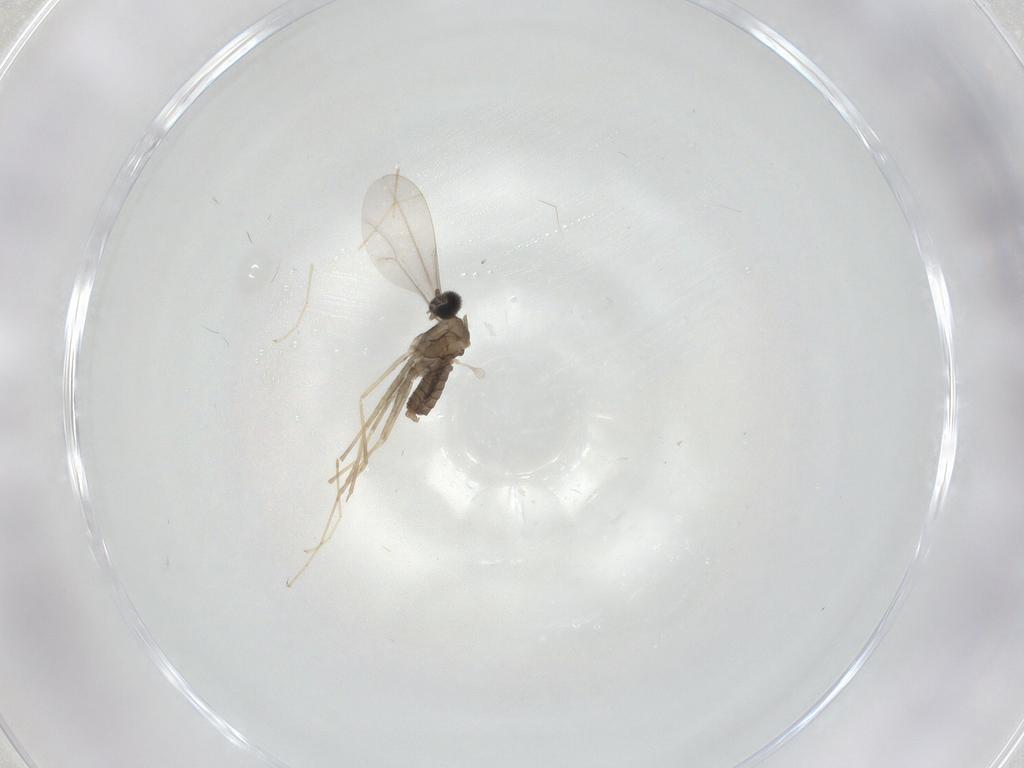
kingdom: Animalia
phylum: Arthropoda
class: Insecta
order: Diptera
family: Cecidomyiidae
